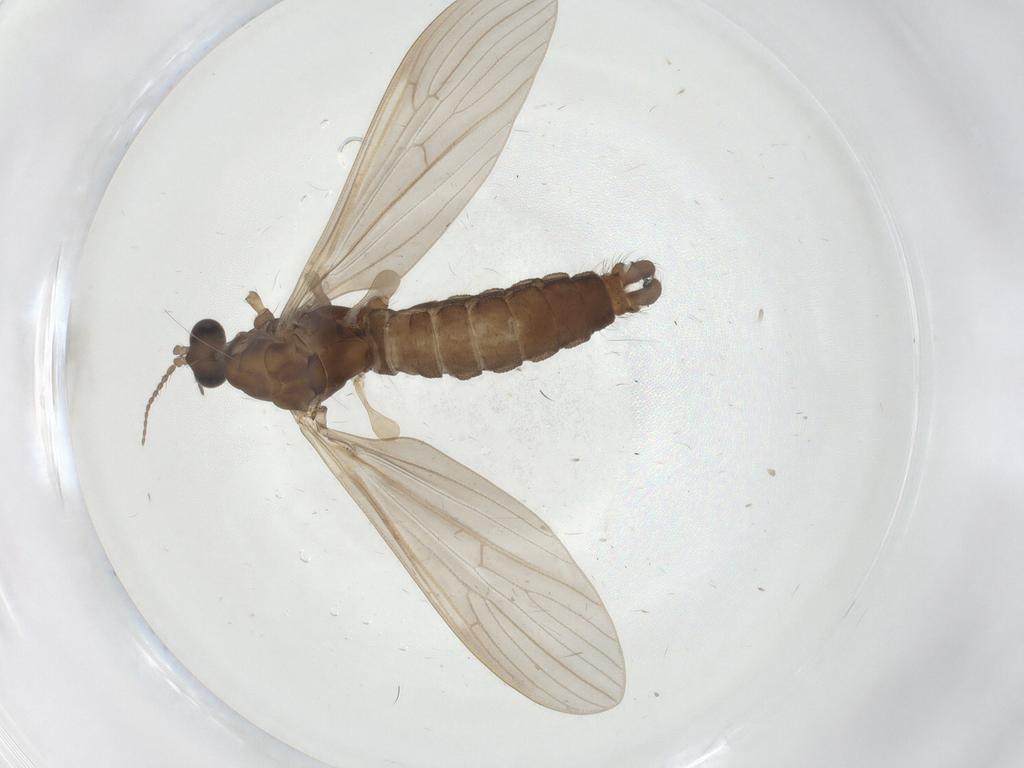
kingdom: Animalia
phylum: Arthropoda
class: Insecta
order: Diptera
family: Limoniidae
